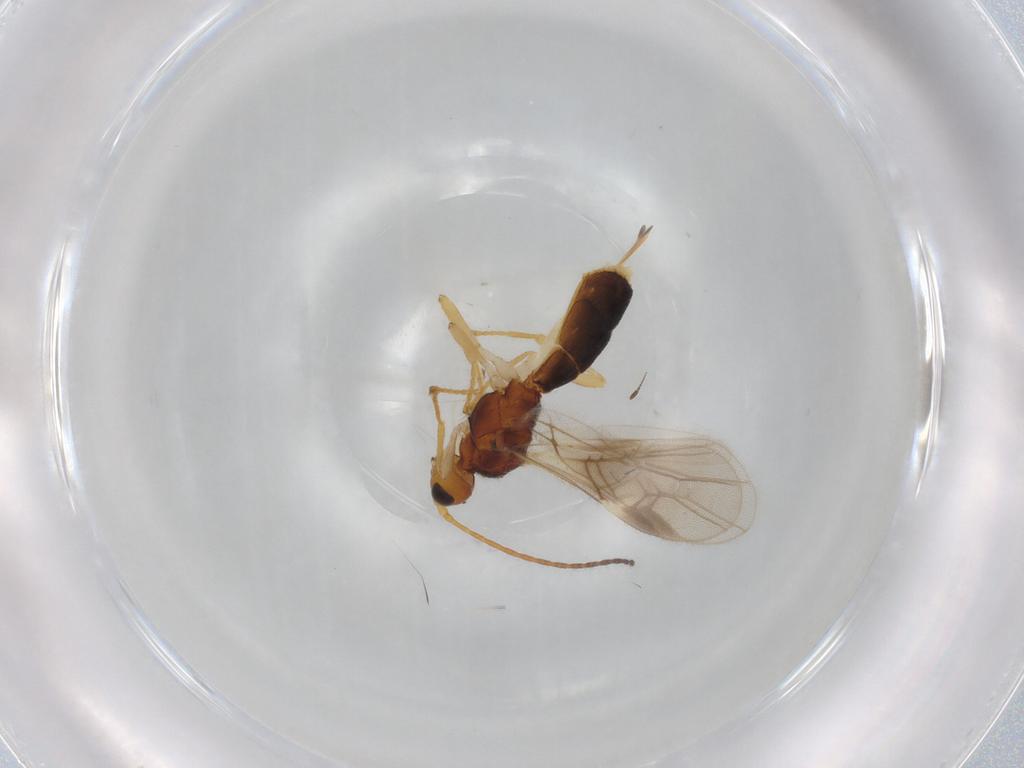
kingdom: Animalia
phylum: Arthropoda
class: Insecta
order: Hymenoptera
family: Braconidae
